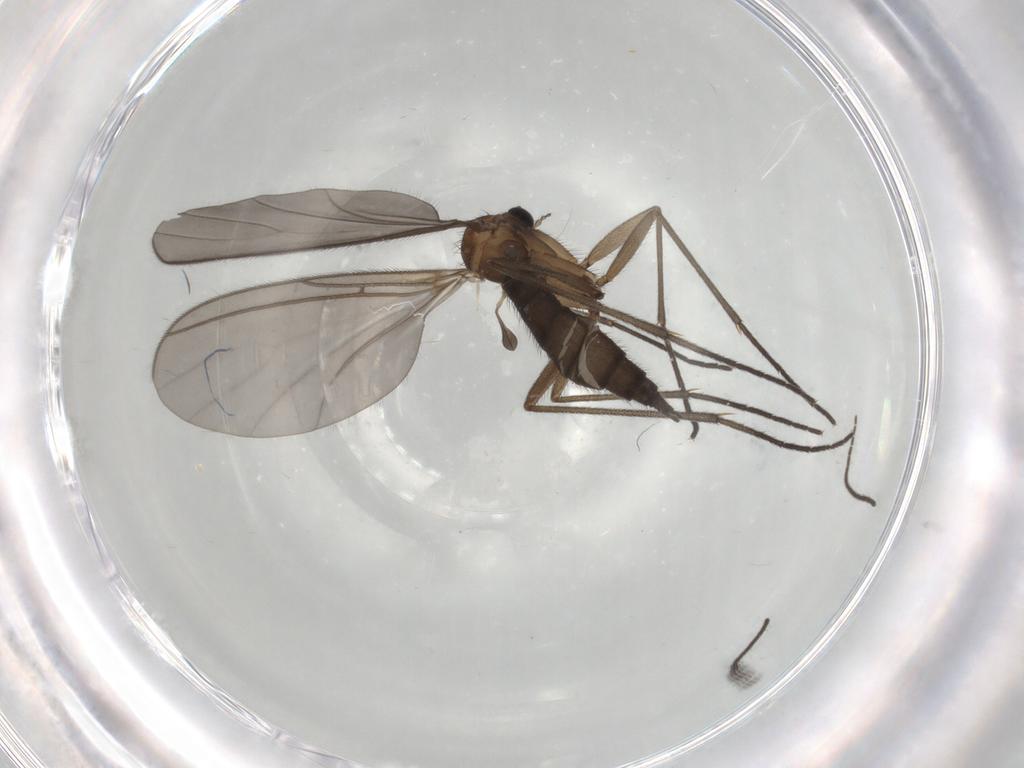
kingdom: Animalia
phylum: Arthropoda
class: Insecta
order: Diptera
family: Sciaridae
